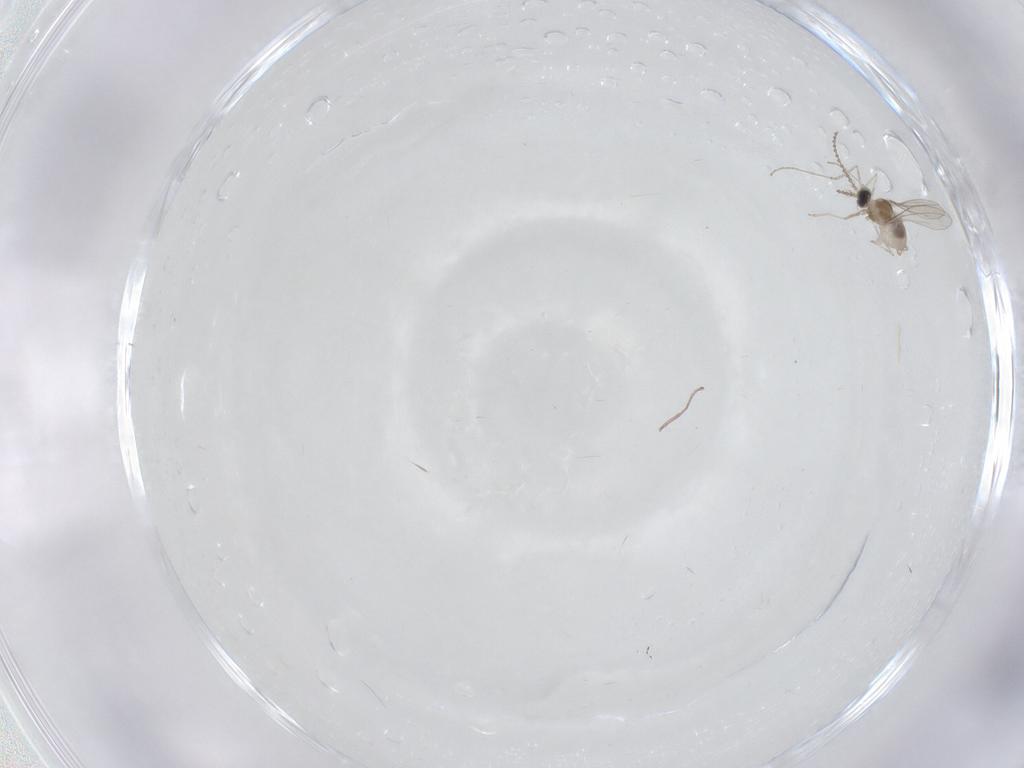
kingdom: Animalia
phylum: Arthropoda
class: Insecta
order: Diptera
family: Cecidomyiidae
